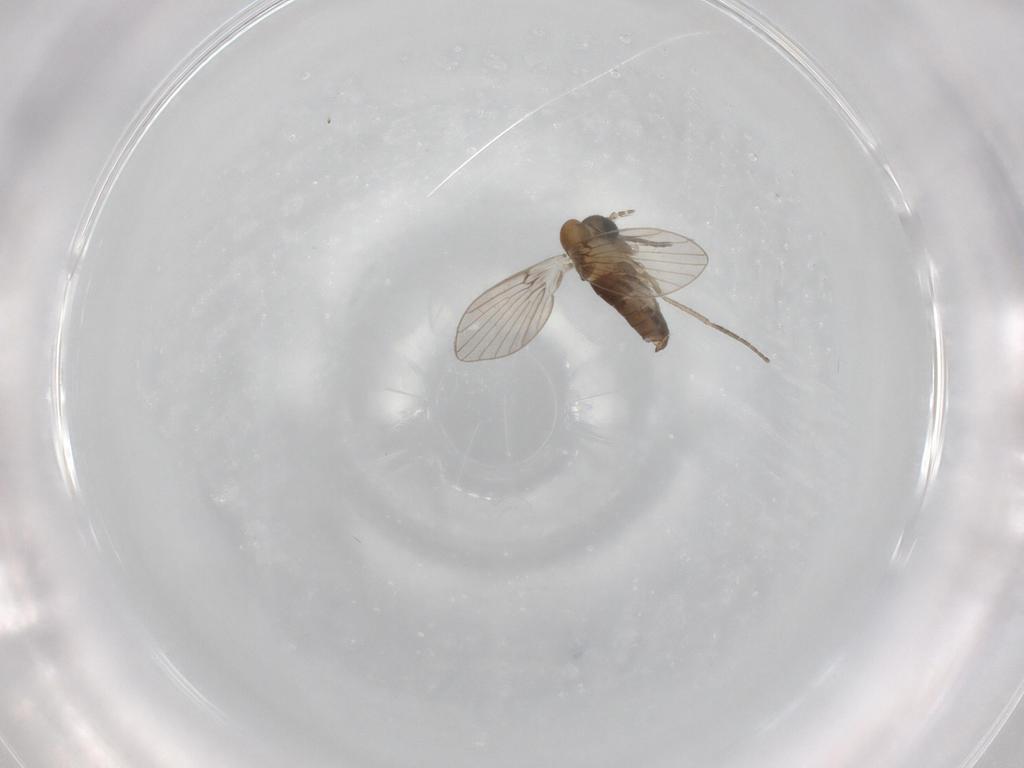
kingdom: Animalia
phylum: Arthropoda
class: Insecta
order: Diptera
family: Psychodidae
